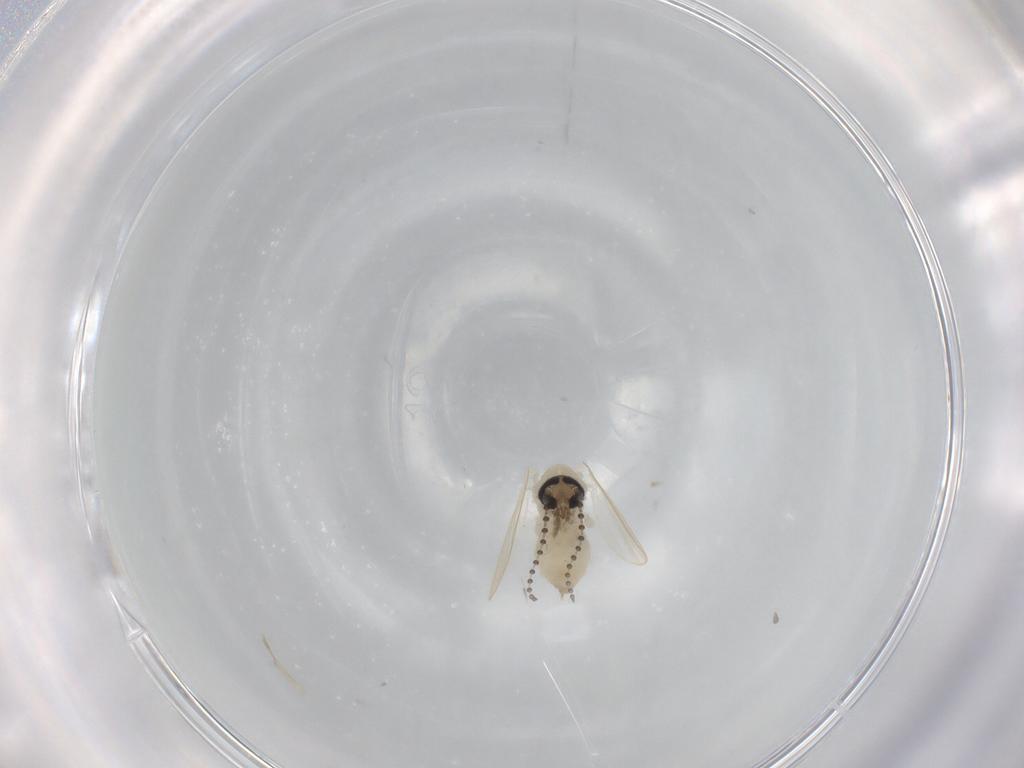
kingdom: Animalia
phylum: Arthropoda
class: Insecta
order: Diptera
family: Psychodidae
